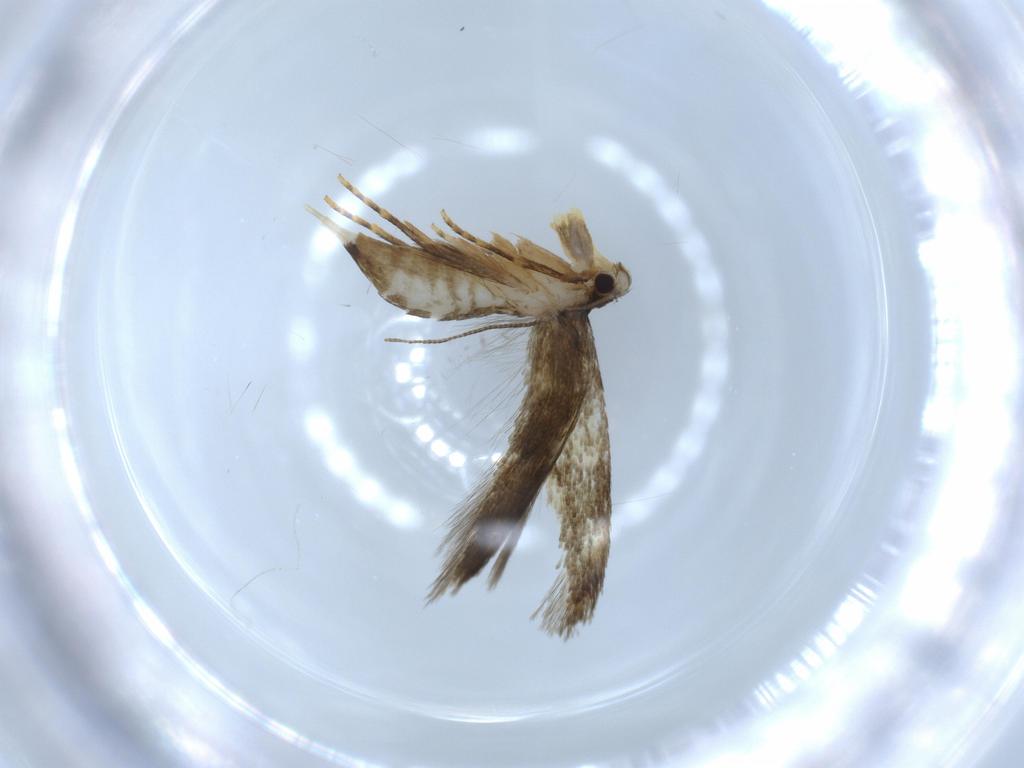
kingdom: Animalia
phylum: Arthropoda
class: Insecta
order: Lepidoptera
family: Tineidae
